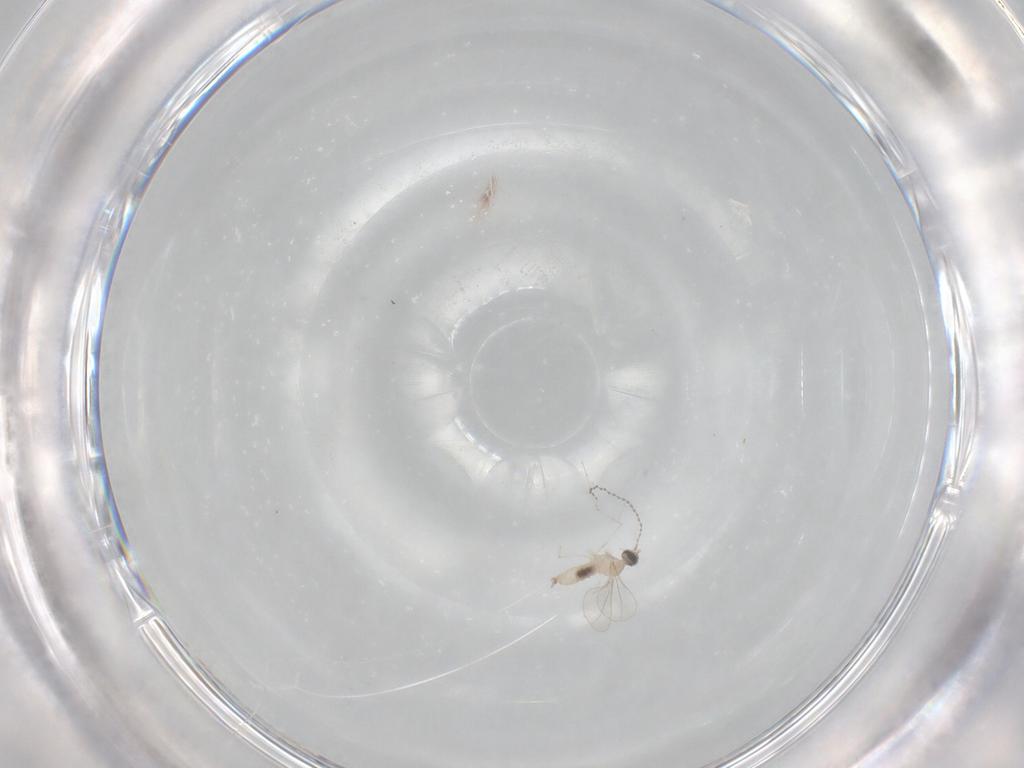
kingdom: Animalia
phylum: Arthropoda
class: Insecta
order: Diptera
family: Cecidomyiidae
